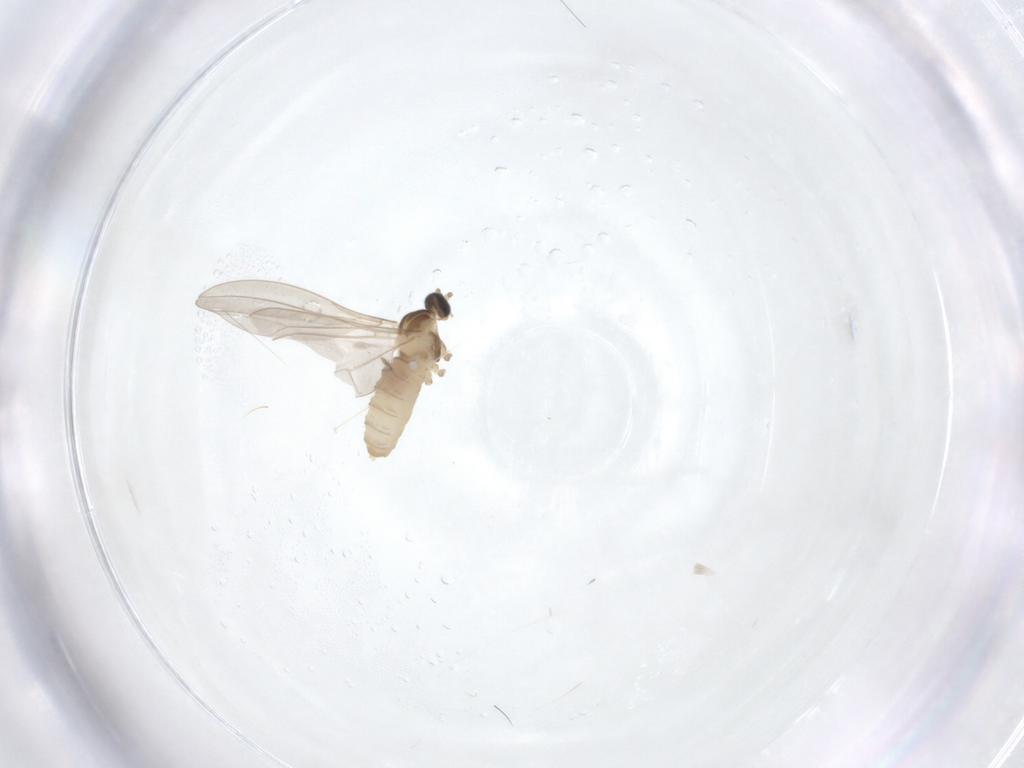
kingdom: Animalia
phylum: Arthropoda
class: Insecta
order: Diptera
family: Cecidomyiidae
